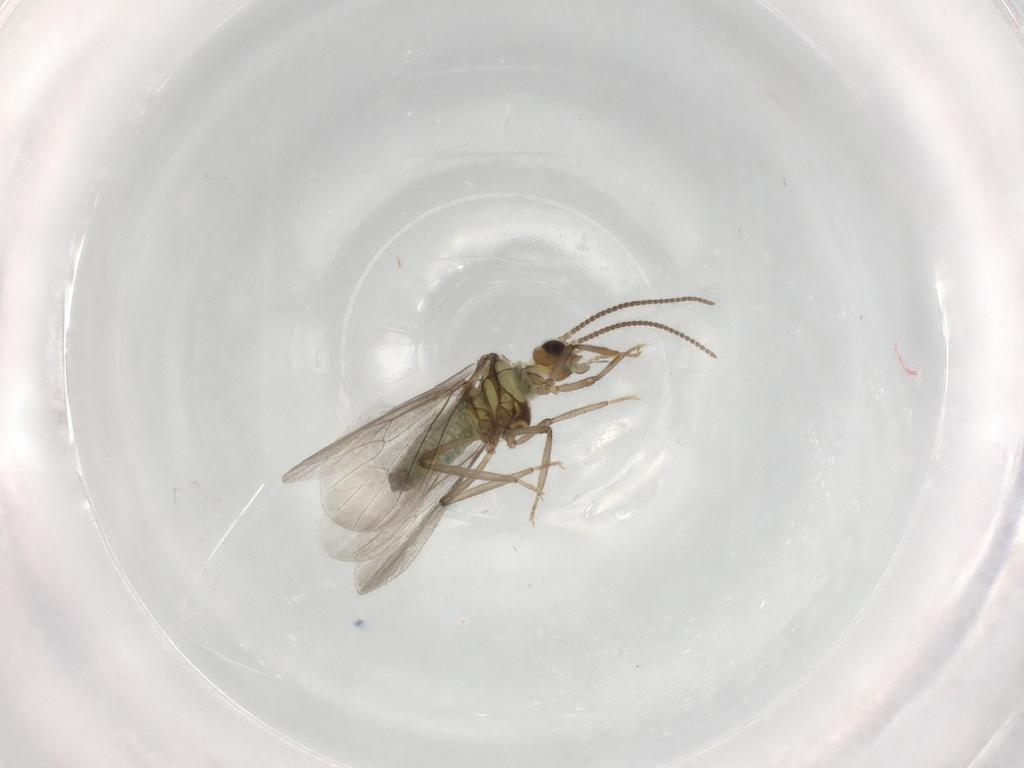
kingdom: Animalia
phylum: Arthropoda
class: Insecta
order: Neuroptera
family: Coniopterygidae
